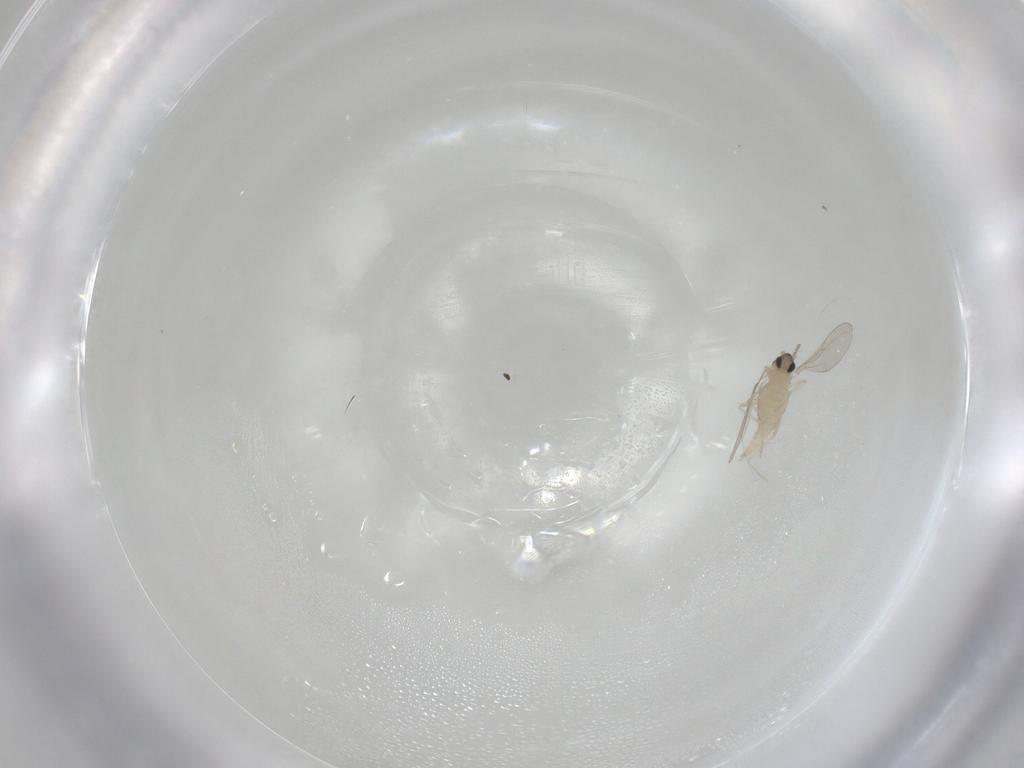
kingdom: Animalia
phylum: Arthropoda
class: Insecta
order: Diptera
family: Cecidomyiidae
